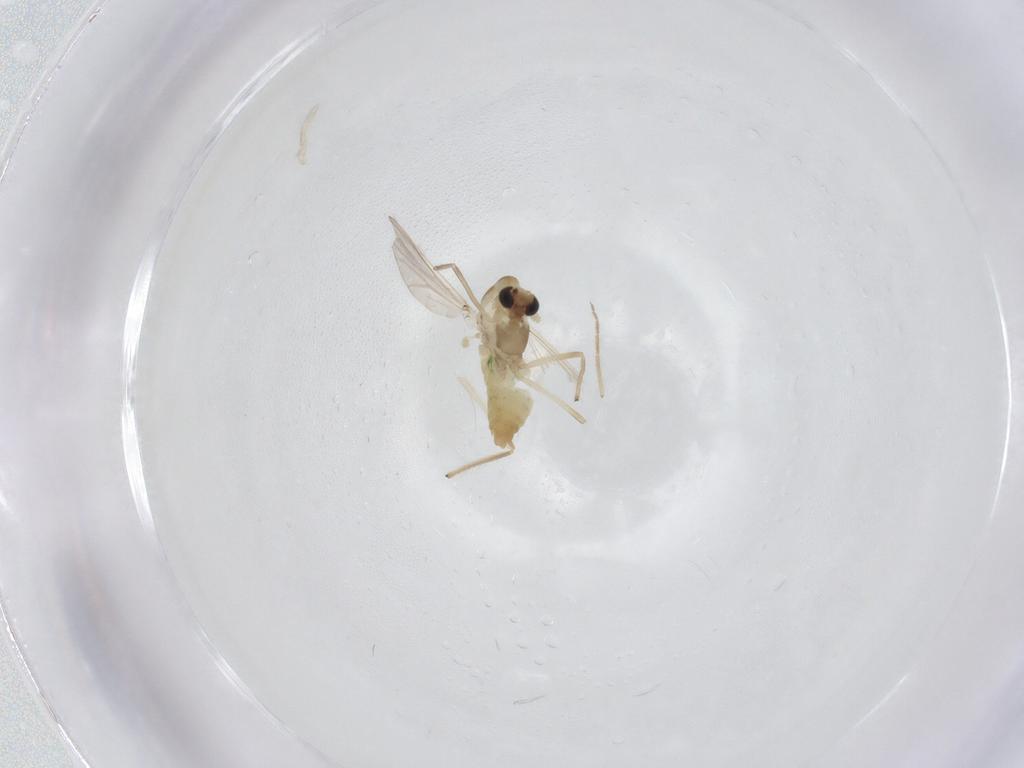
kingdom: Animalia
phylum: Arthropoda
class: Insecta
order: Diptera
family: Chironomidae
